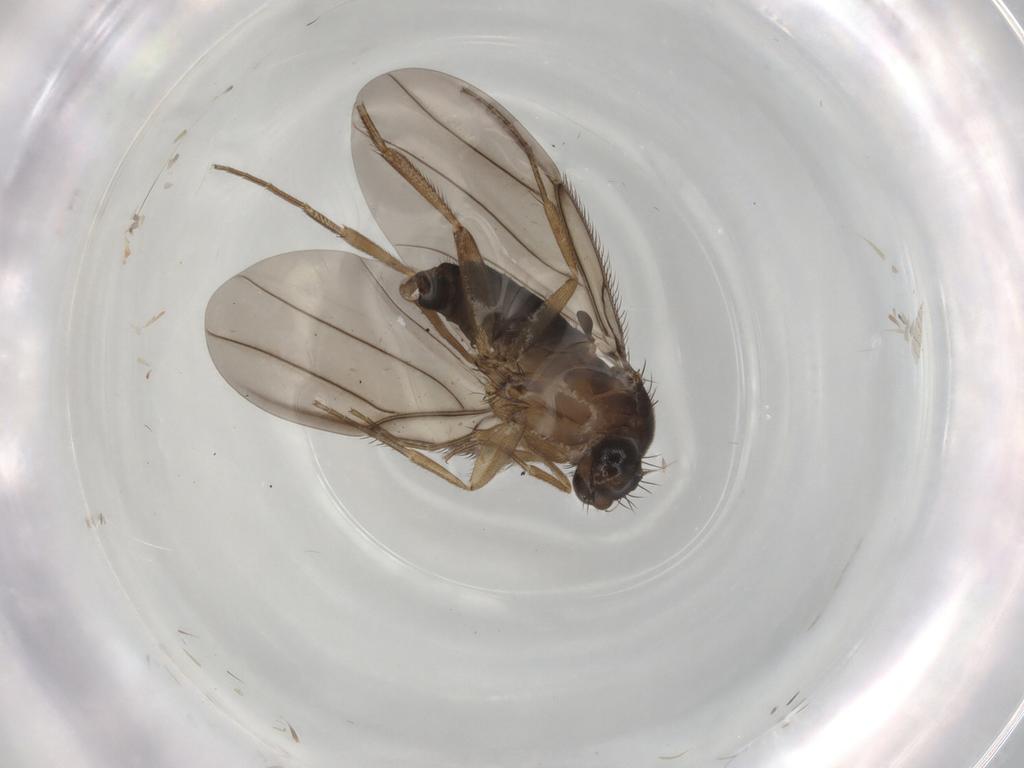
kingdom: Animalia
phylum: Arthropoda
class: Insecta
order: Diptera
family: Phoridae
